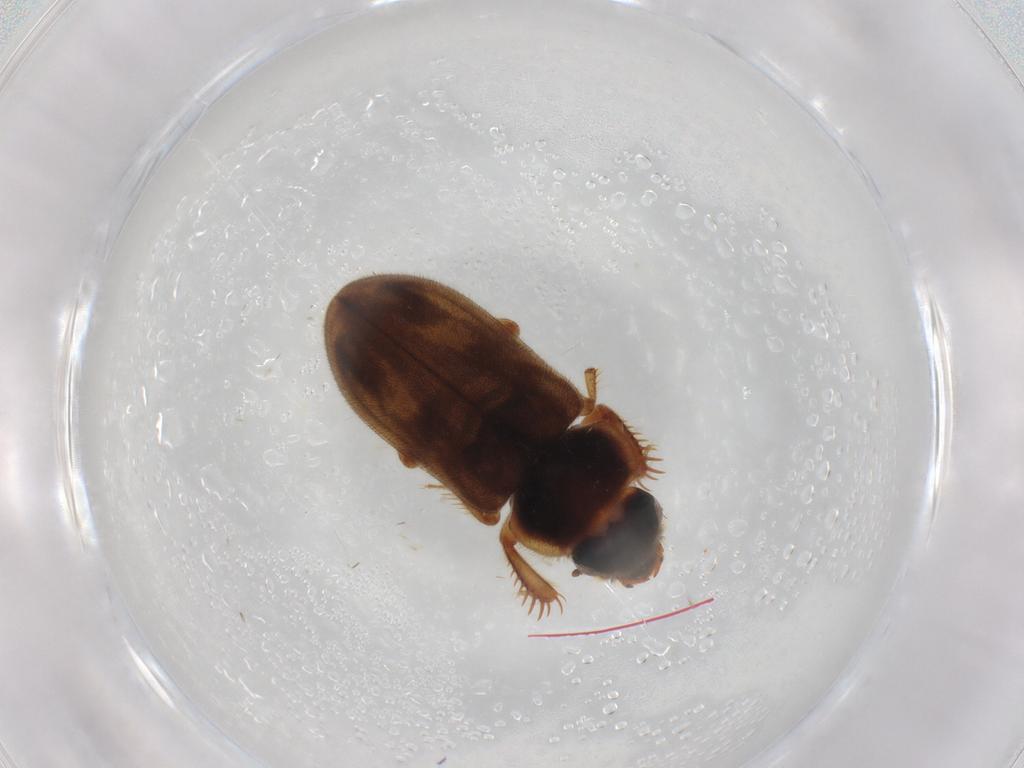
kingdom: Animalia
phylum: Arthropoda
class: Insecta
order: Coleoptera
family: Heteroceridae
